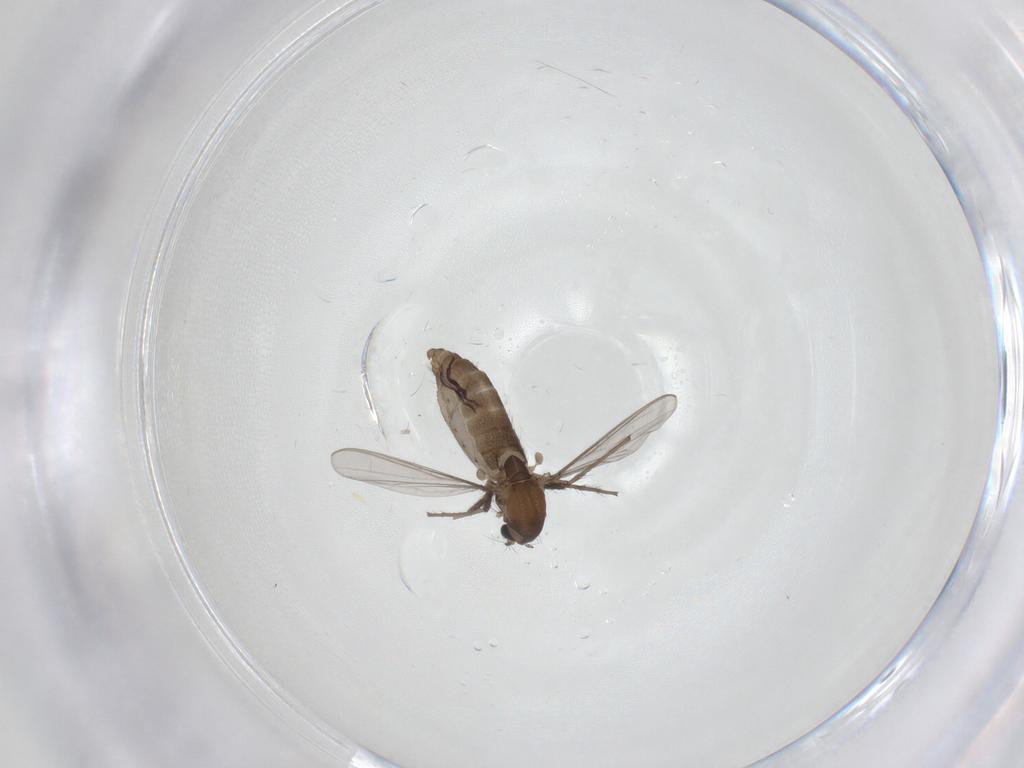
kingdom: Animalia
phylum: Arthropoda
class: Insecta
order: Diptera
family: Chironomidae
